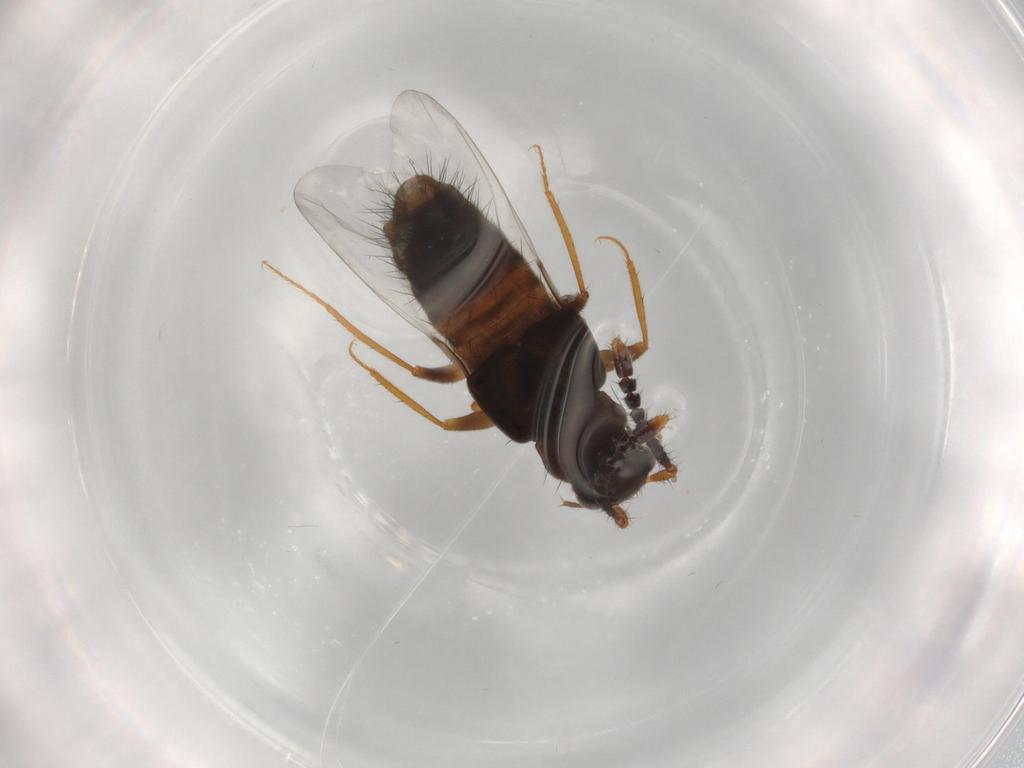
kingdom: Animalia
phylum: Arthropoda
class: Insecta
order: Coleoptera
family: Staphylinidae
